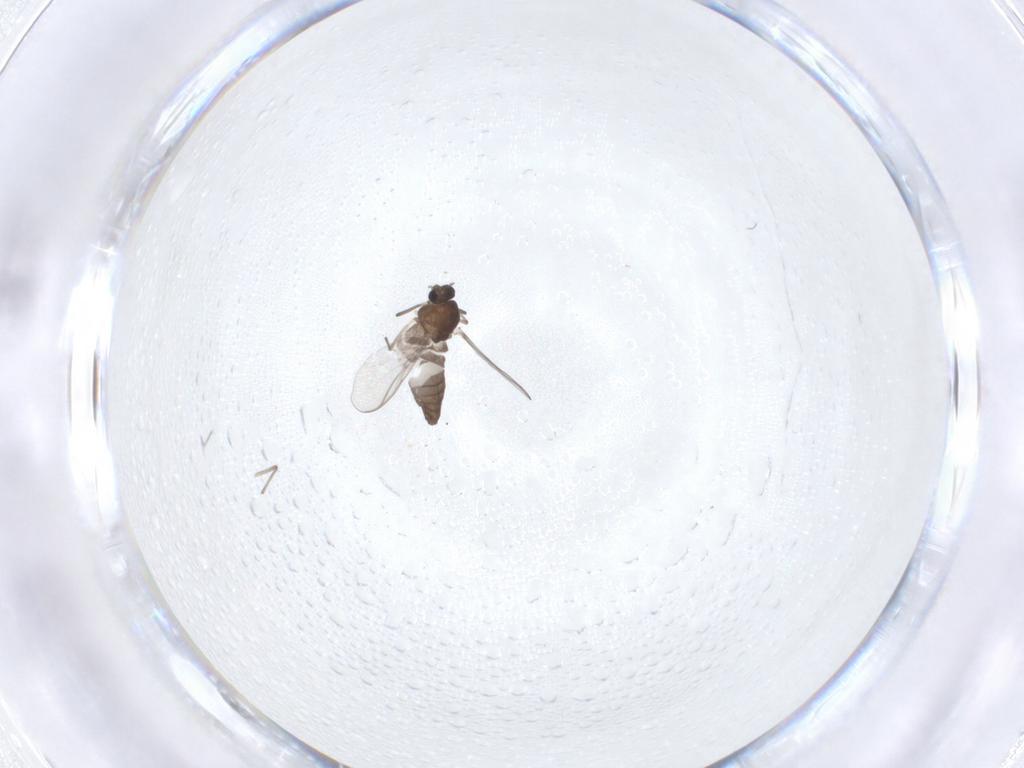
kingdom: Animalia
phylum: Arthropoda
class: Insecta
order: Diptera
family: Chironomidae
